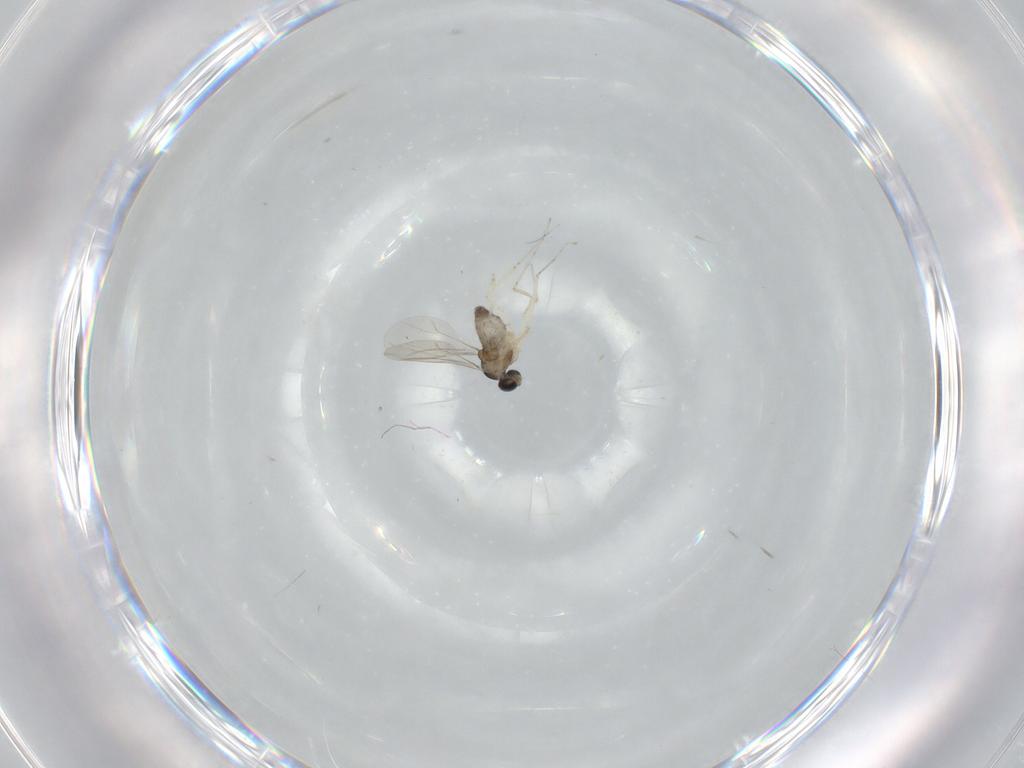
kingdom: Animalia
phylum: Arthropoda
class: Insecta
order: Diptera
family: Cecidomyiidae
